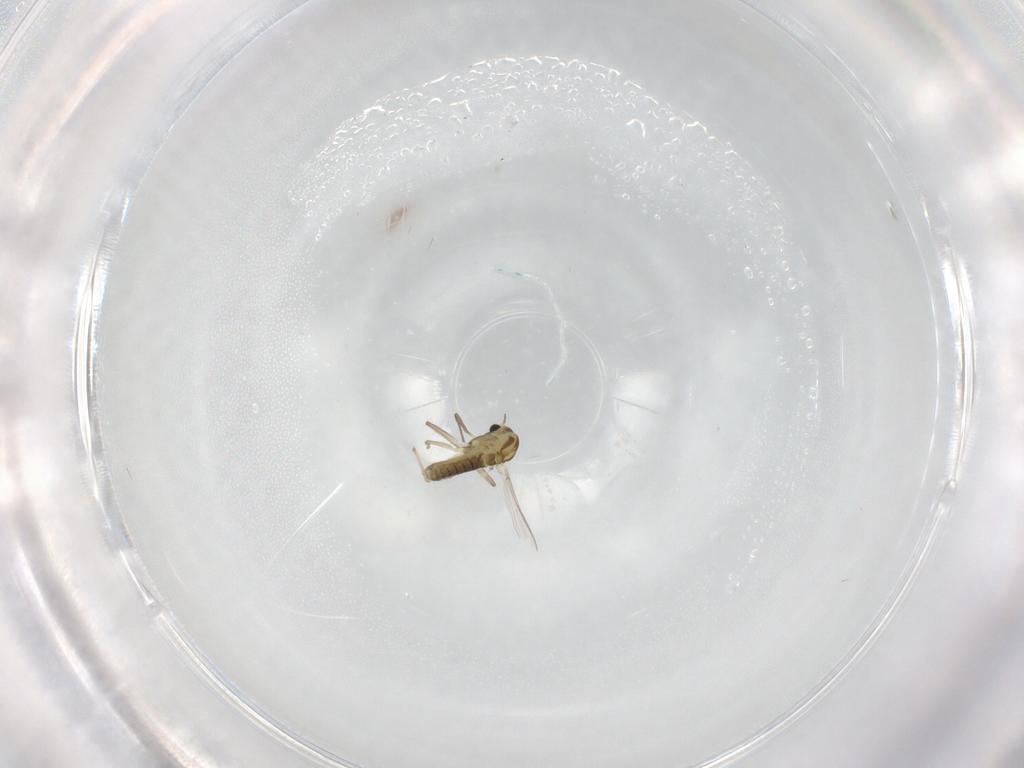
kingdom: Animalia
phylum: Arthropoda
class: Insecta
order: Diptera
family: Chironomidae
